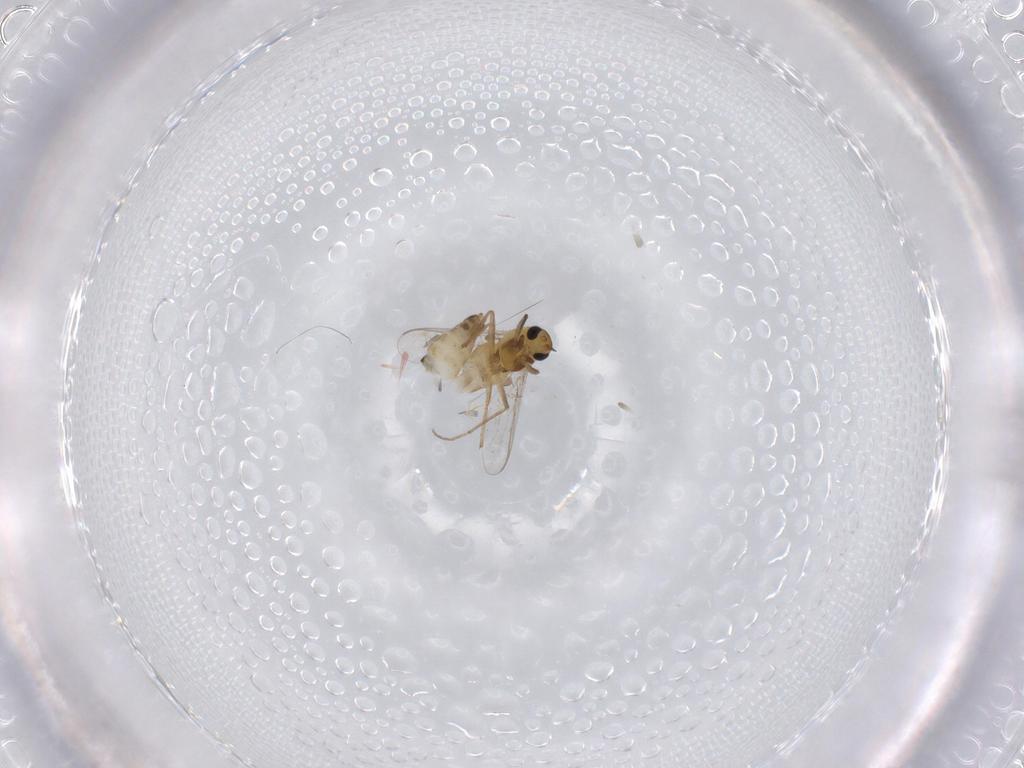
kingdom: Animalia
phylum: Arthropoda
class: Insecta
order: Diptera
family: Chironomidae
